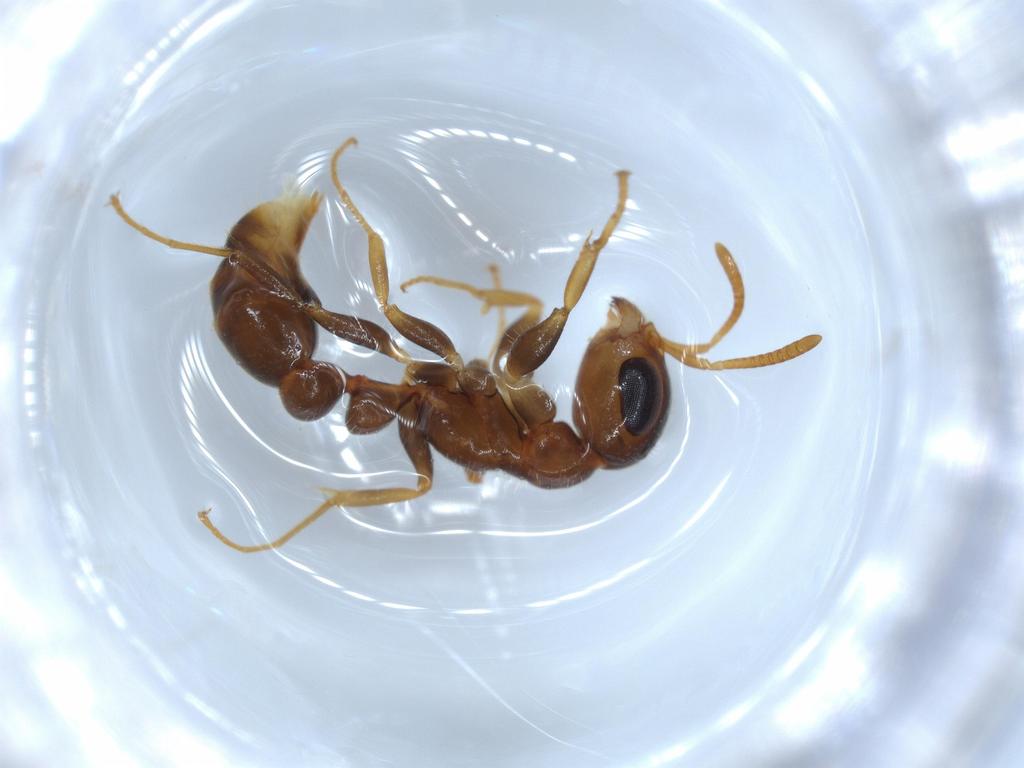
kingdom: Animalia
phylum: Arthropoda
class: Insecta
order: Hymenoptera
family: Formicidae
